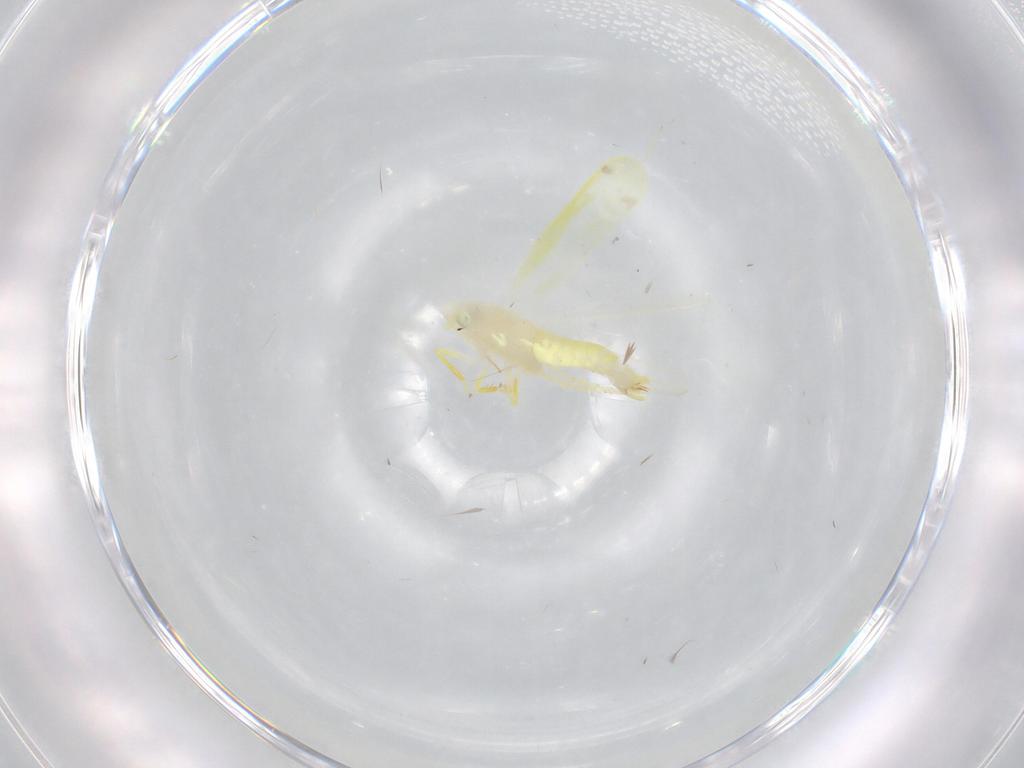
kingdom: Animalia
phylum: Arthropoda
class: Insecta
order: Hemiptera
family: Cicadellidae
